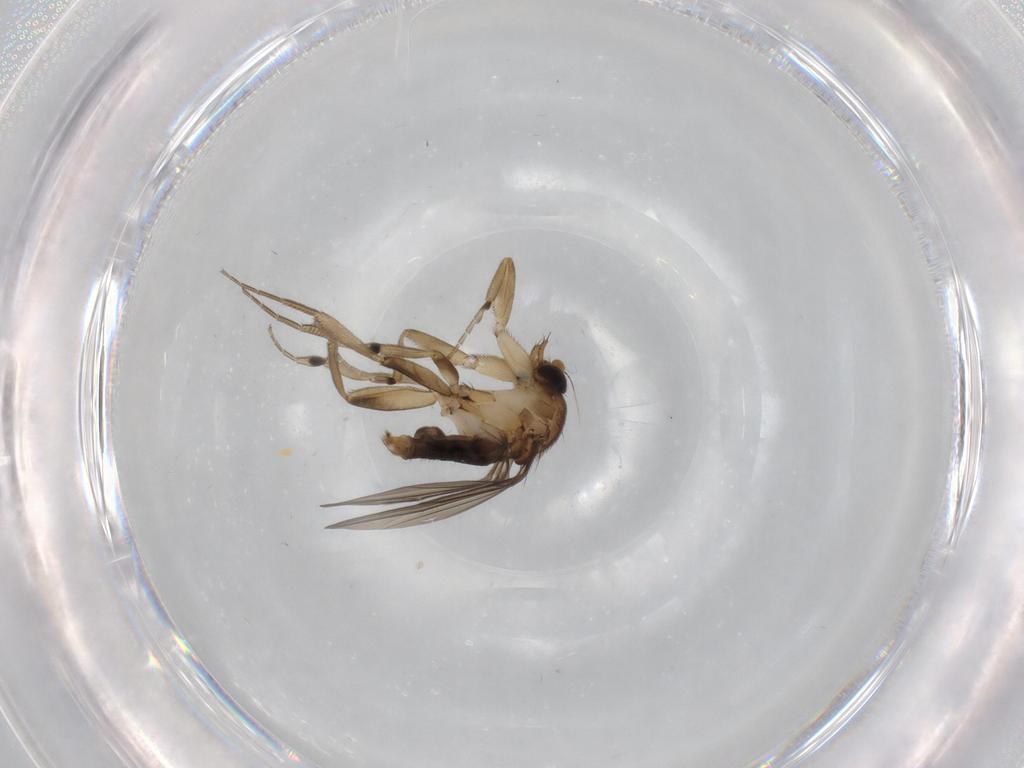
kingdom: Animalia
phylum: Arthropoda
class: Insecta
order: Diptera
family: Phoridae
